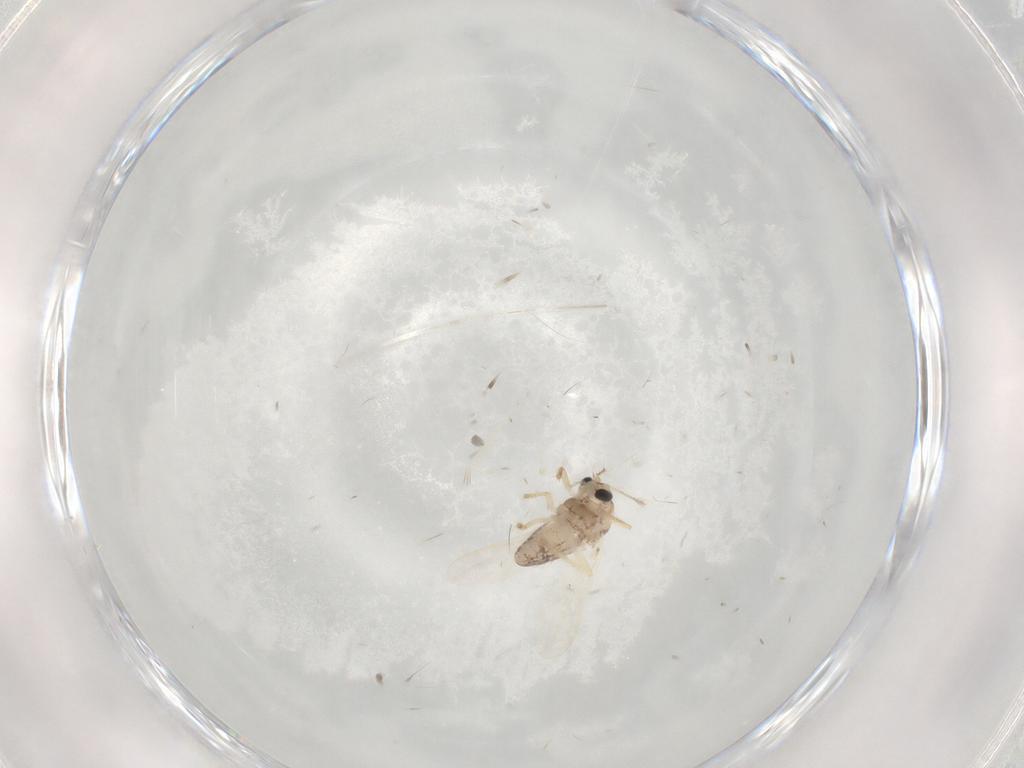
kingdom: Animalia
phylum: Arthropoda
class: Insecta
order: Diptera
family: Chironomidae
